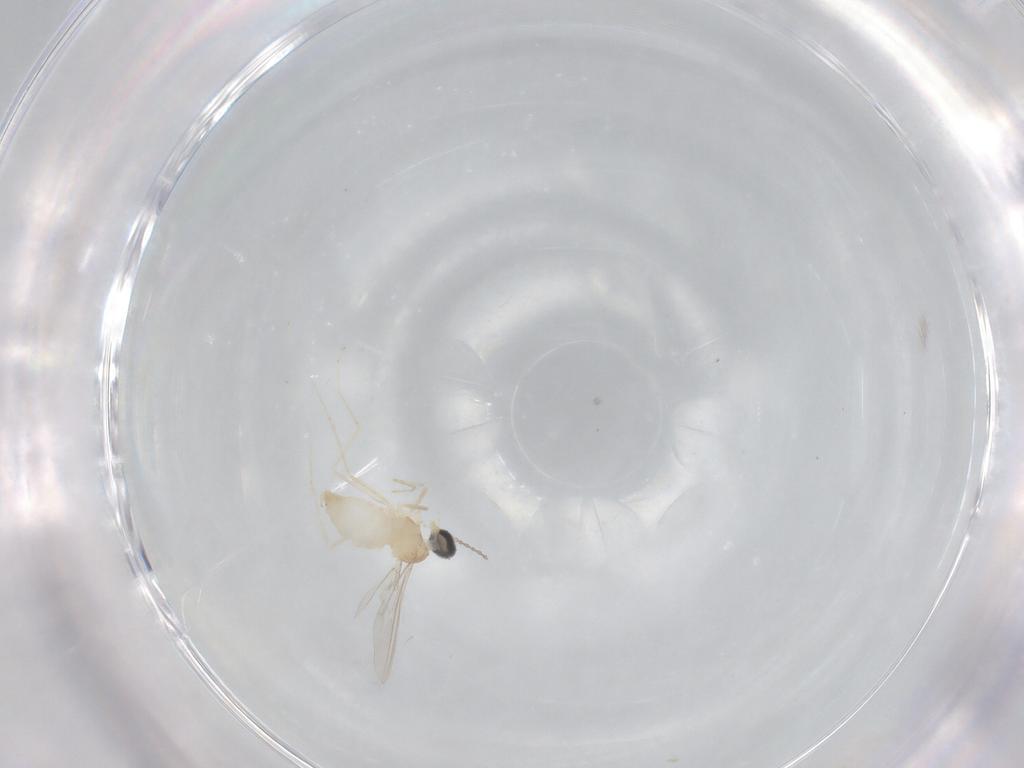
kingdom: Animalia
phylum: Arthropoda
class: Insecta
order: Diptera
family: Cecidomyiidae
